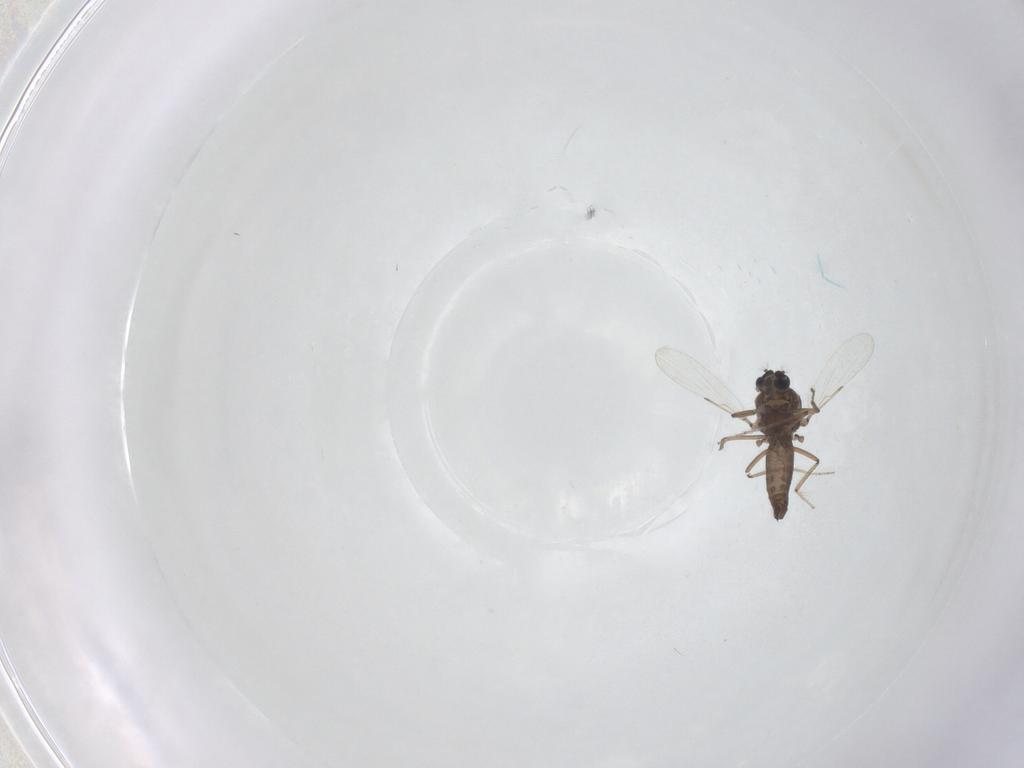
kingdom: Animalia
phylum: Arthropoda
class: Insecta
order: Diptera
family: Ceratopogonidae
